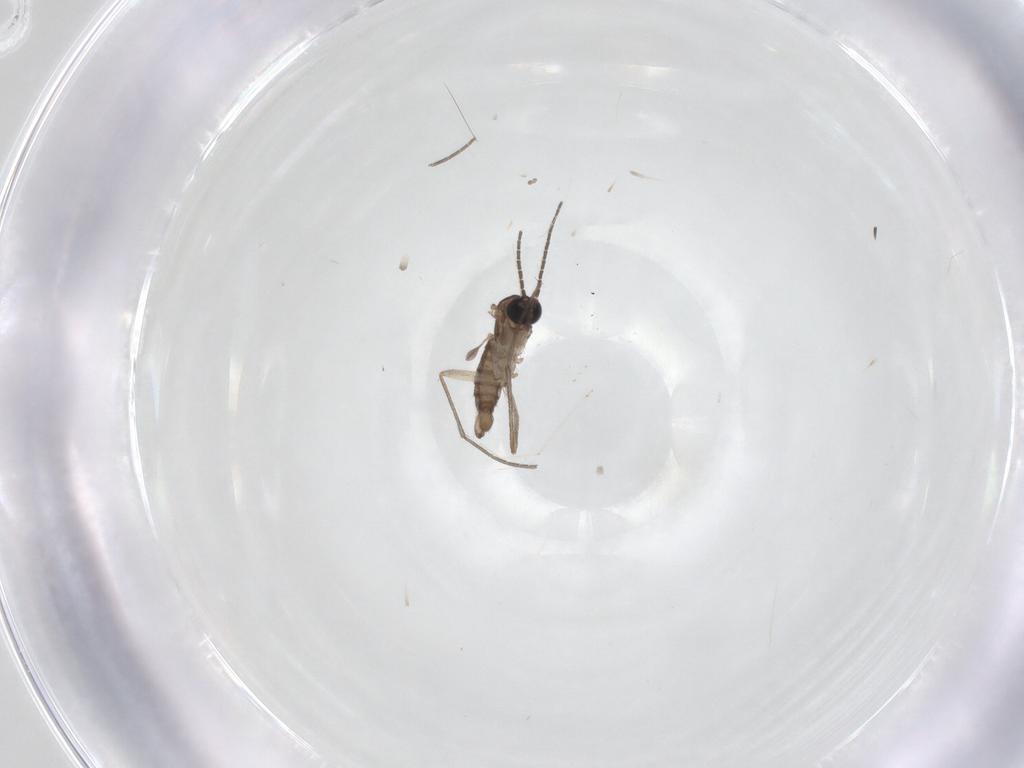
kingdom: Animalia
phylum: Arthropoda
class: Insecta
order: Diptera
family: Sciaridae
